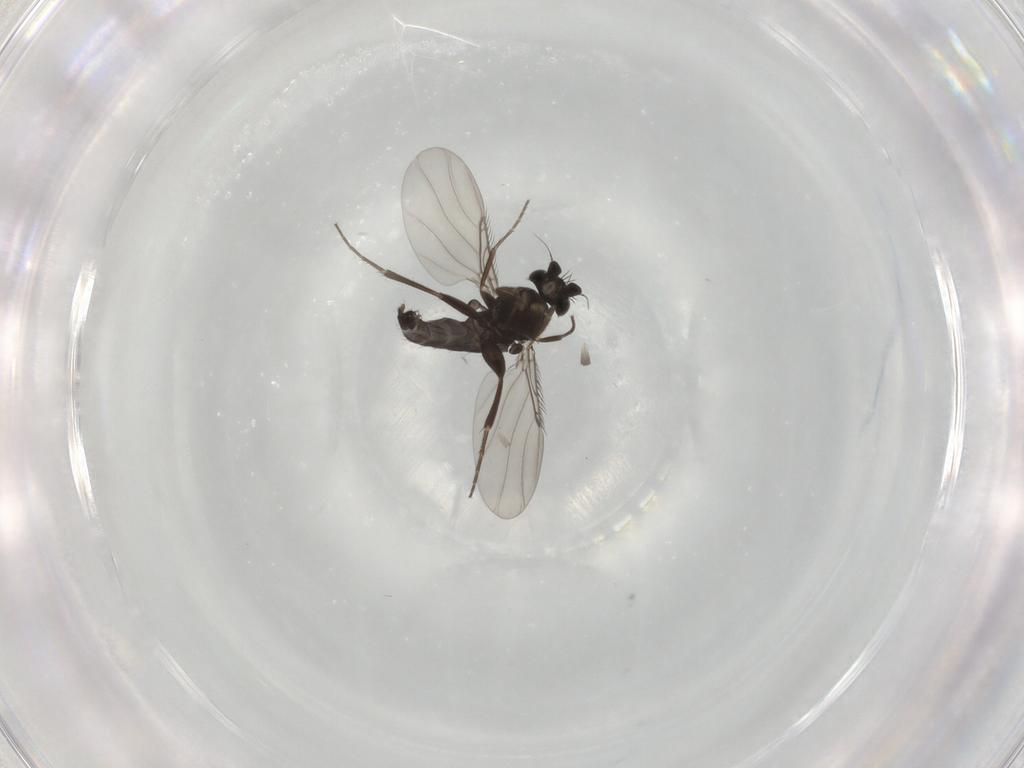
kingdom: Animalia
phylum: Arthropoda
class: Insecta
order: Diptera
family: Phoridae
